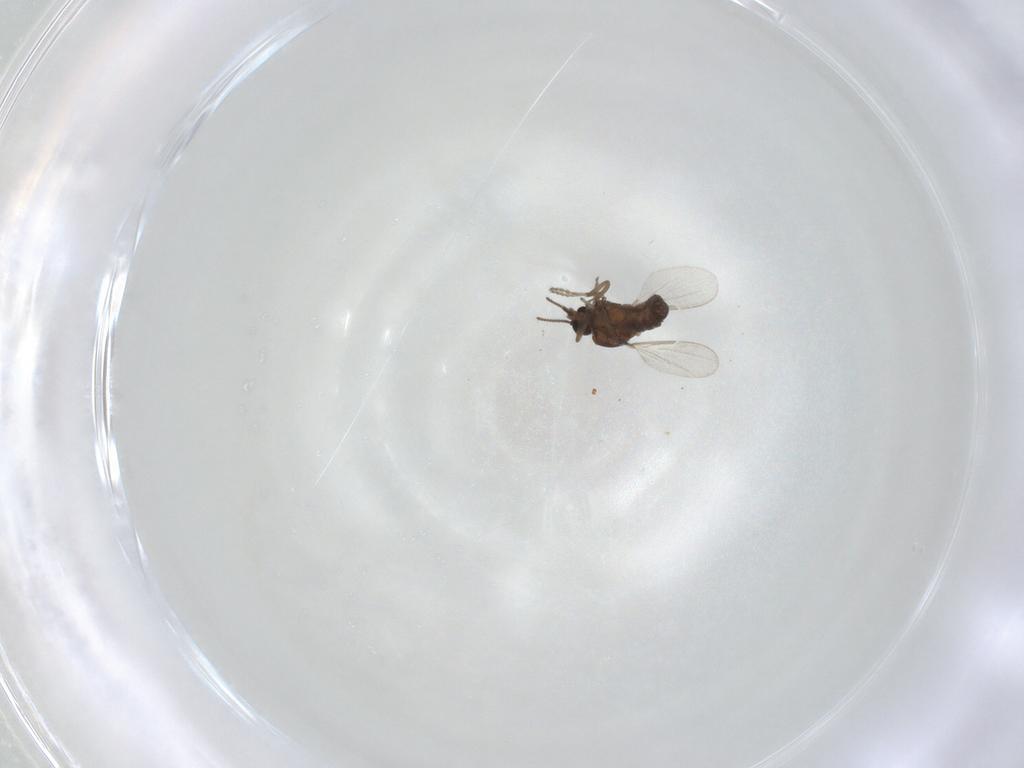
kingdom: Animalia
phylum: Arthropoda
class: Insecta
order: Diptera
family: Ceratopogonidae
